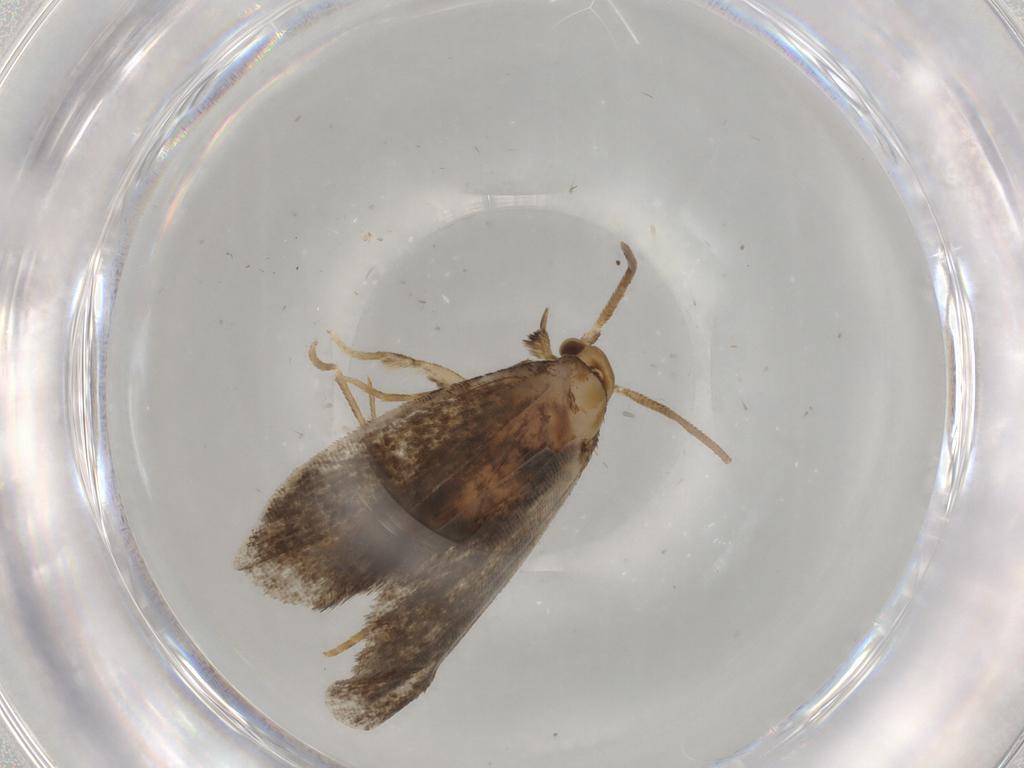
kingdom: Animalia
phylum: Arthropoda
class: Insecta
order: Lepidoptera
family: Dryadaulidae
